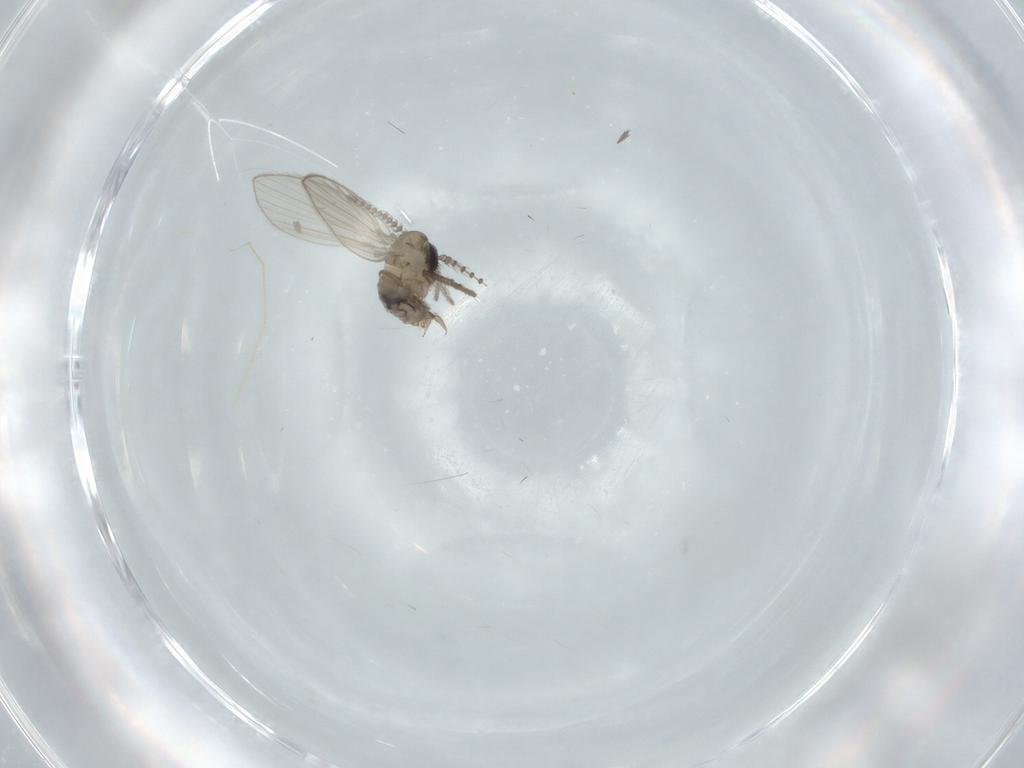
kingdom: Animalia
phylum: Arthropoda
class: Insecta
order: Diptera
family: Chironomidae
